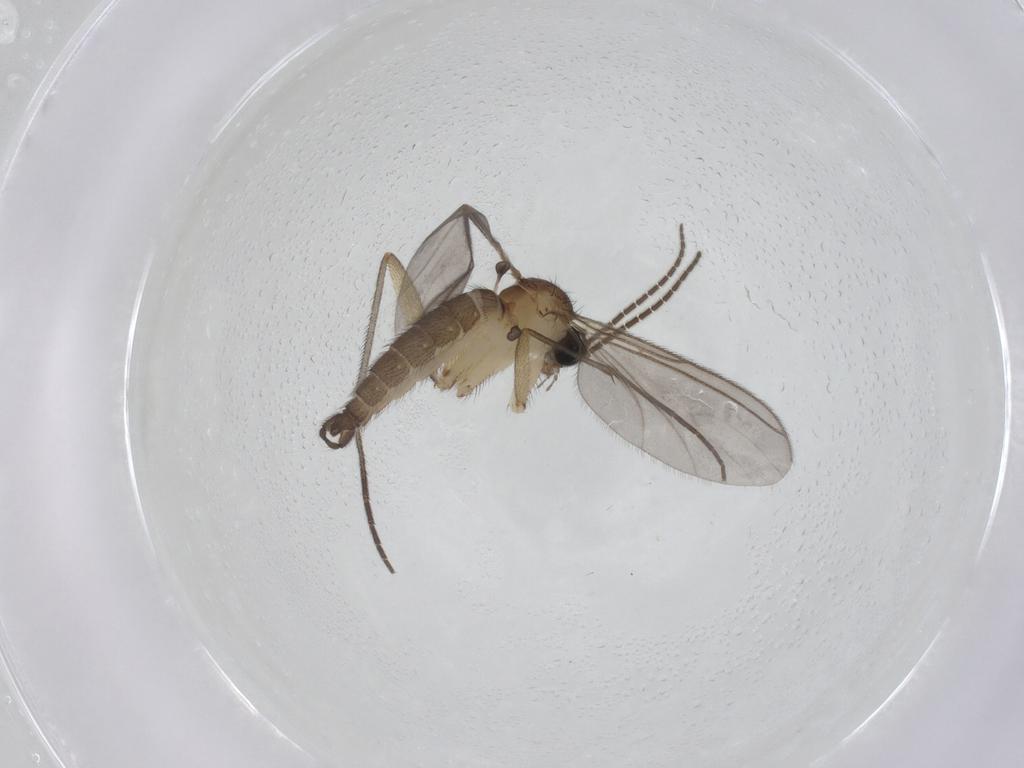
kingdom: Animalia
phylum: Arthropoda
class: Insecta
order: Diptera
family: Sciaridae
